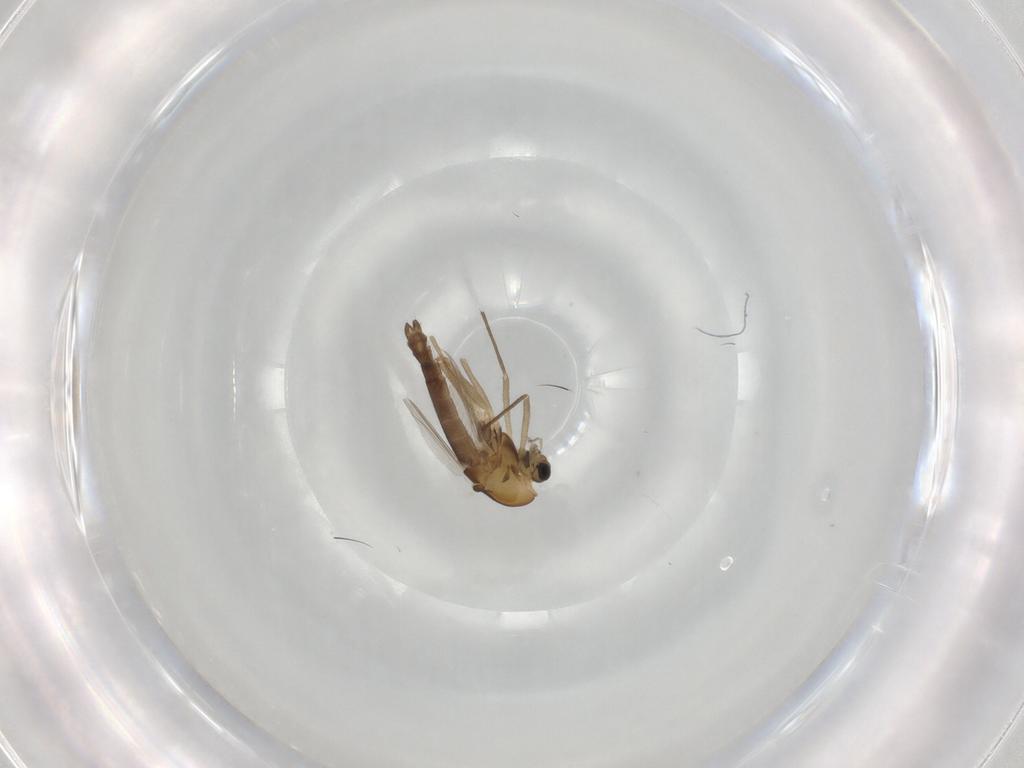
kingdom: Animalia
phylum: Arthropoda
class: Insecta
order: Diptera
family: Chironomidae
